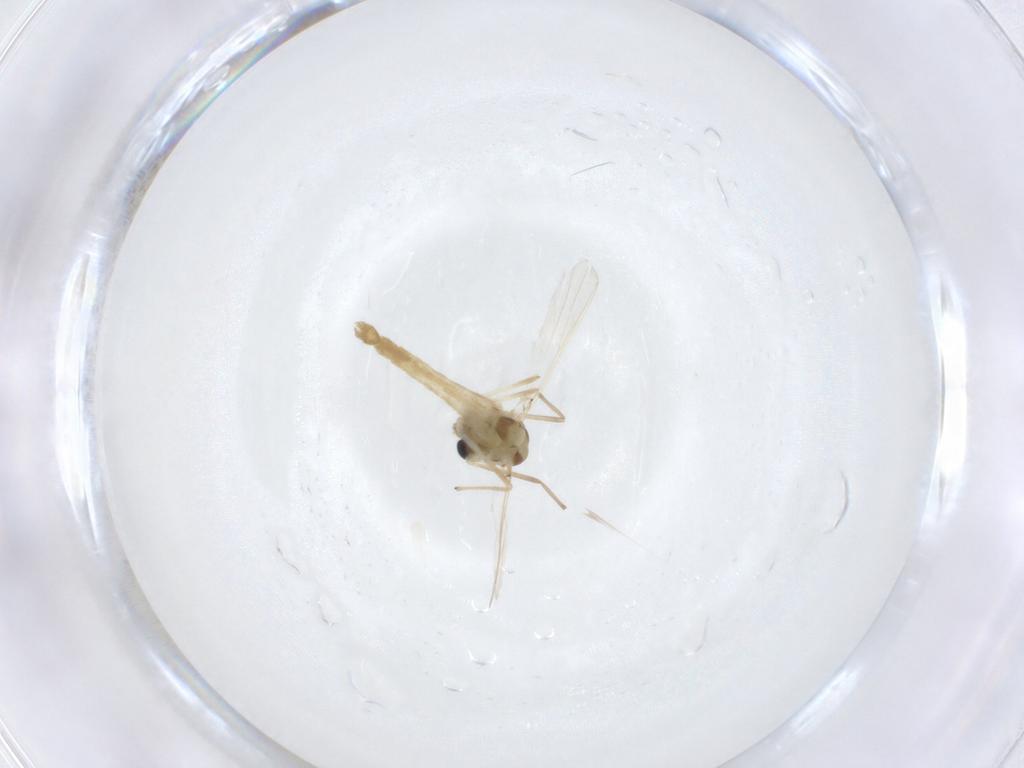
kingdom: Animalia
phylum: Arthropoda
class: Insecta
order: Diptera
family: Chironomidae
